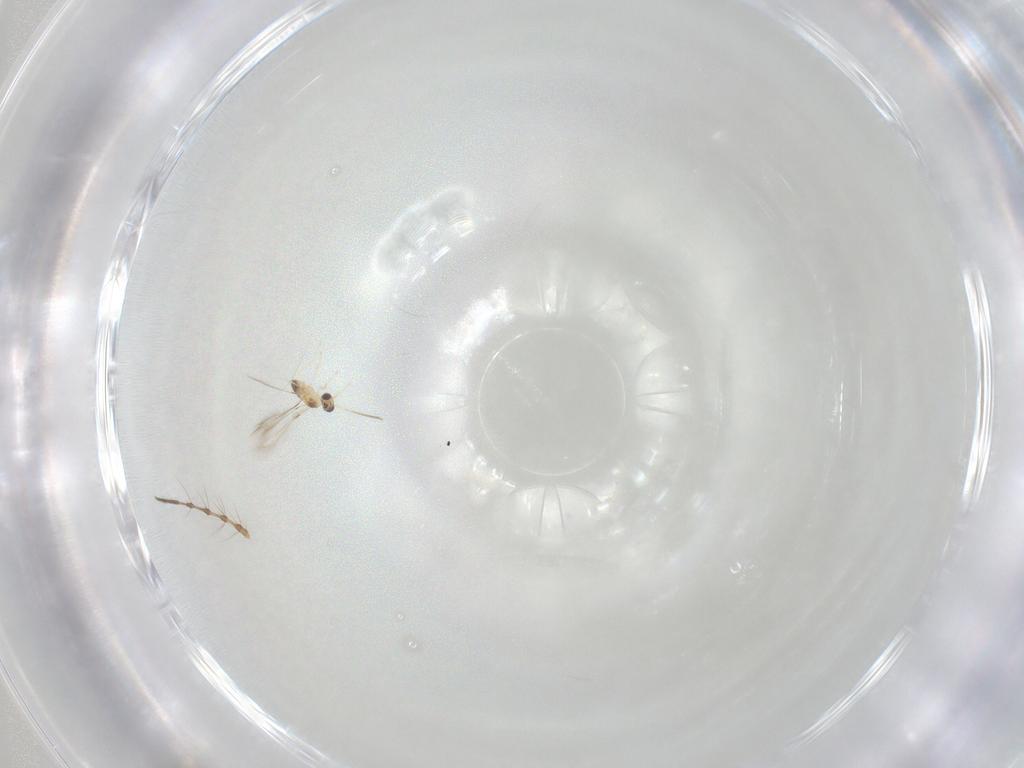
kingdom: Animalia
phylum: Arthropoda
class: Insecta
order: Hymenoptera
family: Mymaridae
